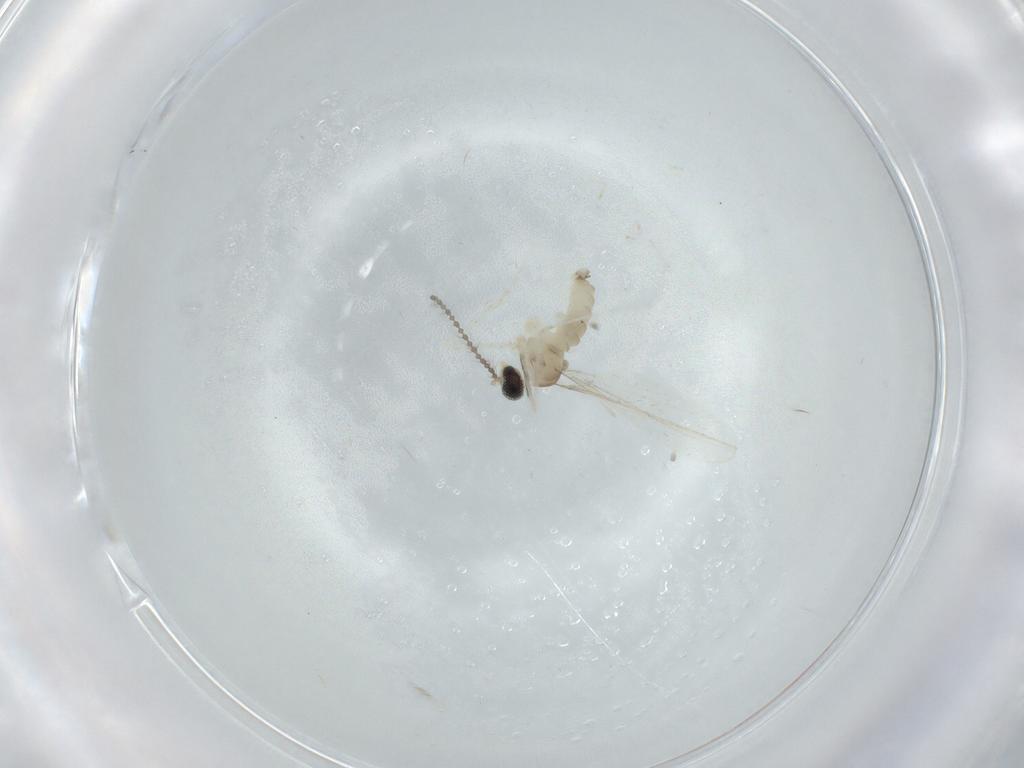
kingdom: Animalia
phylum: Arthropoda
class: Insecta
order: Diptera
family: Cecidomyiidae
